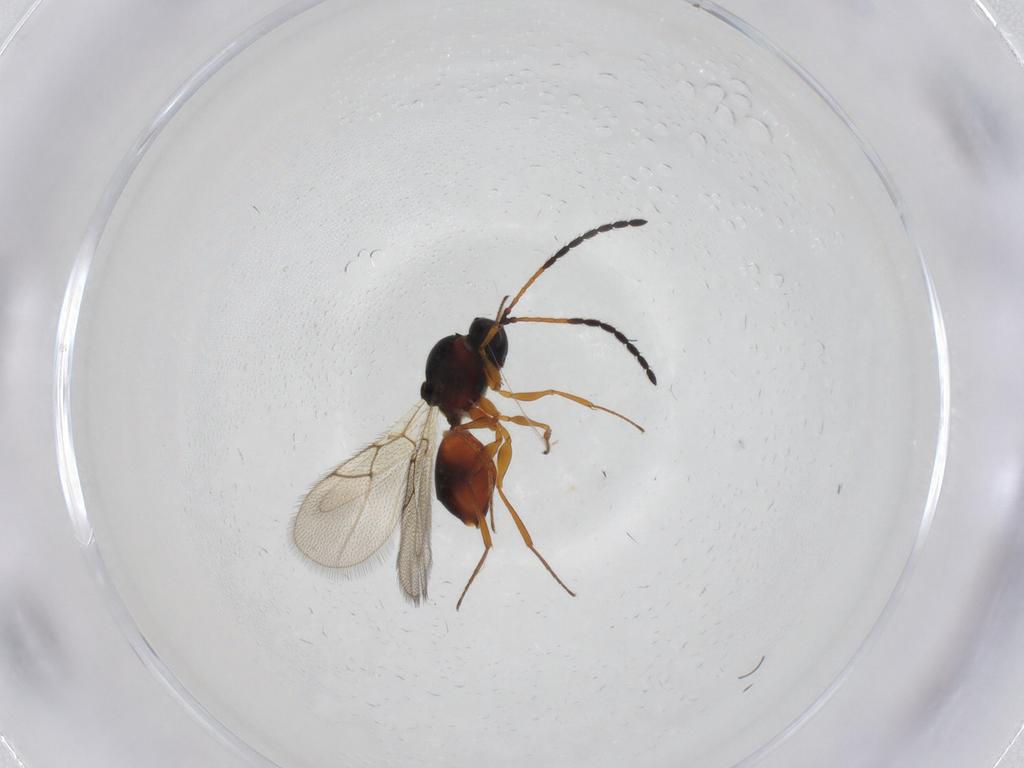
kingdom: Animalia
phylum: Arthropoda
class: Insecta
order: Hymenoptera
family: Figitidae
